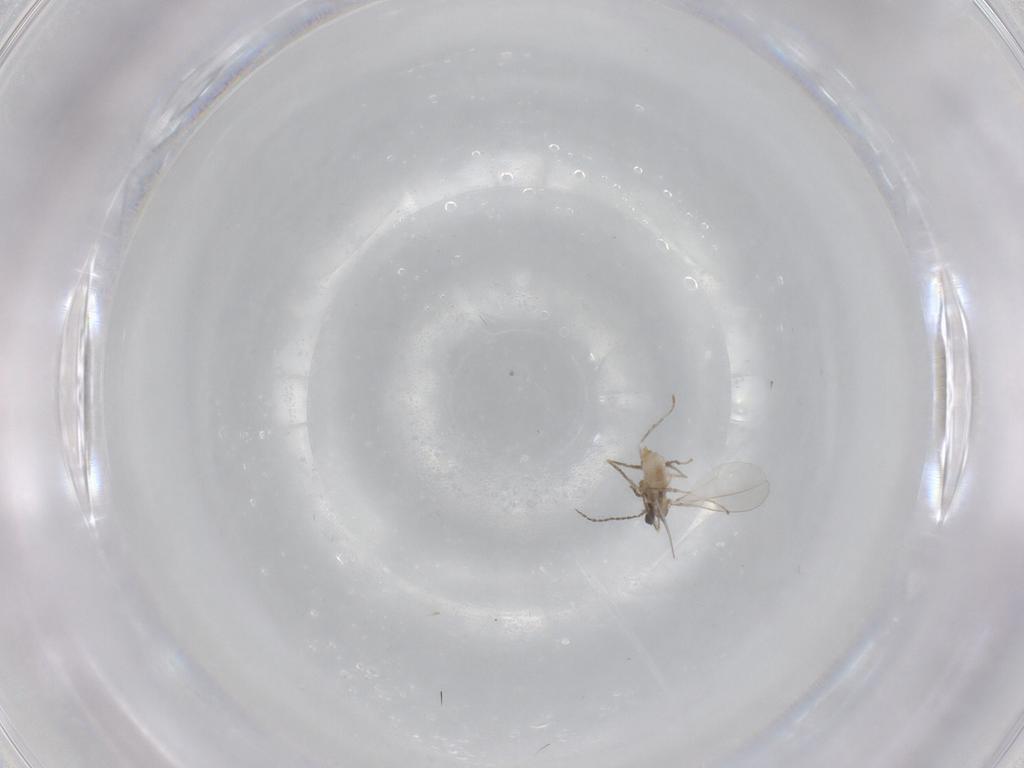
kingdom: Animalia
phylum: Arthropoda
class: Insecta
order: Diptera
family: Cecidomyiidae
